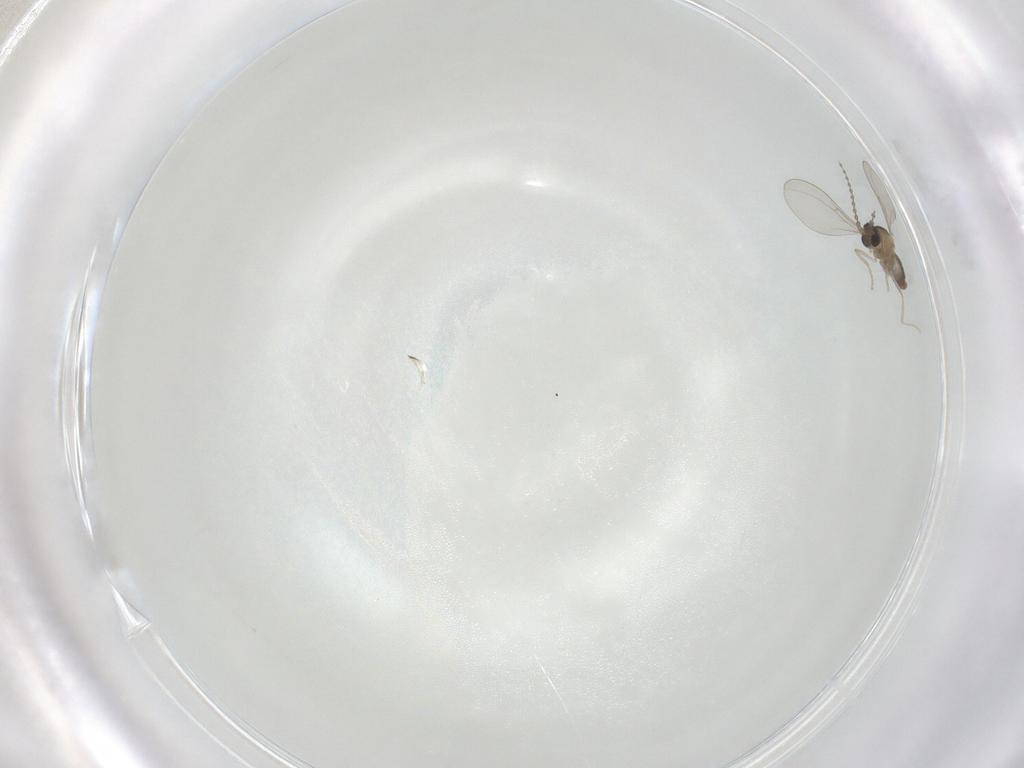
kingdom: Animalia
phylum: Arthropoda
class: Insecta
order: Diptera
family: Cecidomyiidae
